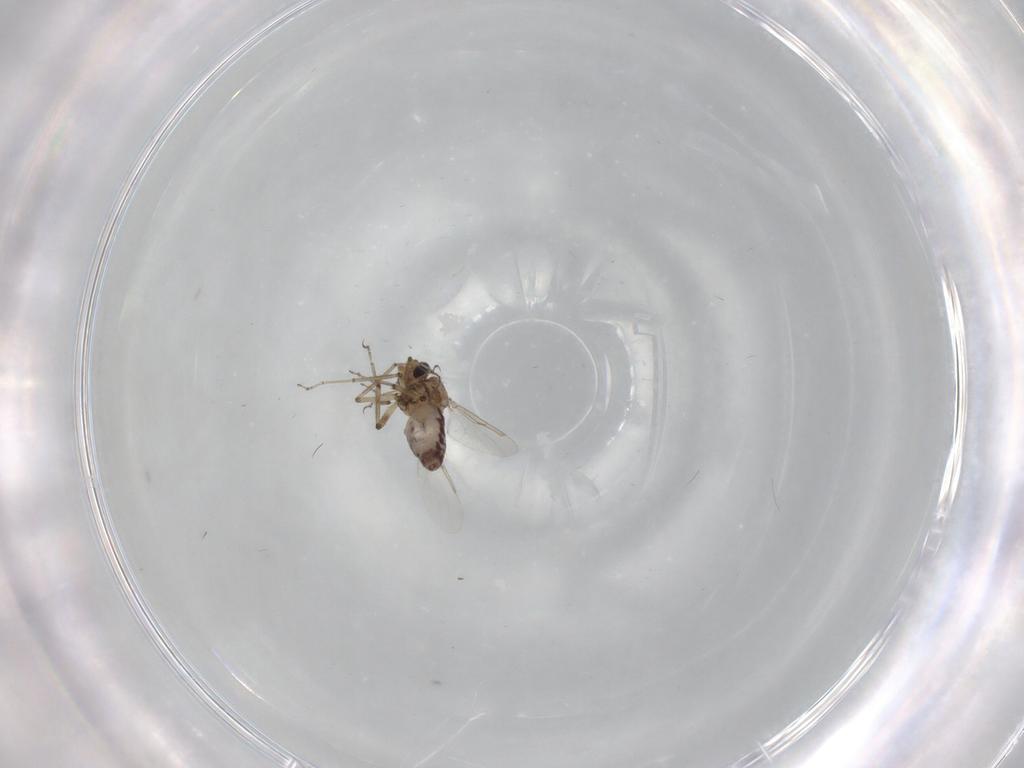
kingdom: Animalia
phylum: Arthropoda
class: Insecta
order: Diptera
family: Ceratopogonidae
